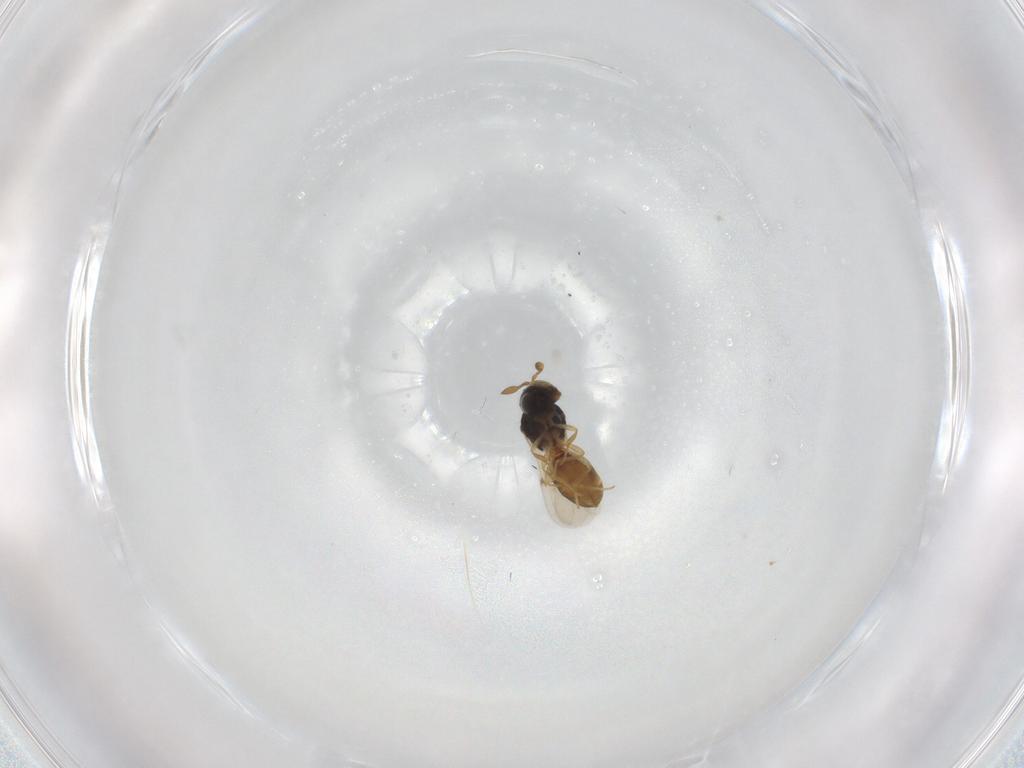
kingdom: Animalia
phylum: Arthropoda
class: Insecta
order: Hymenoptera
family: Scelionidae
